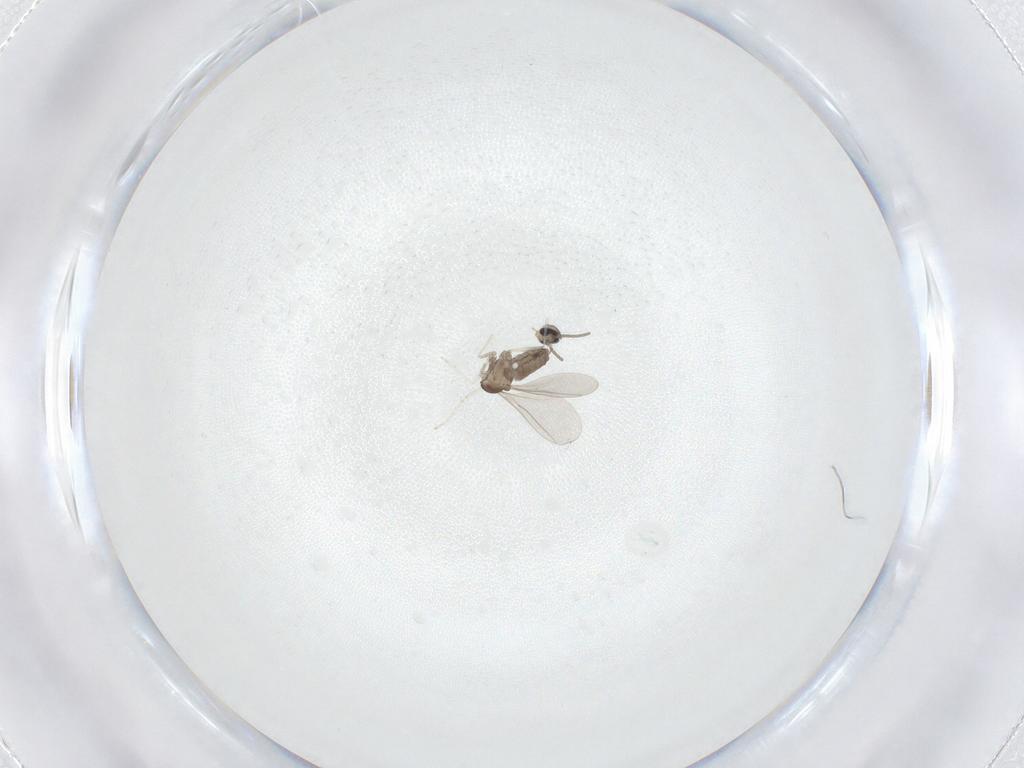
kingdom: Animalia
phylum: Arthropoda
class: Insecta
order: Diptera
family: Cecidomyiidae
